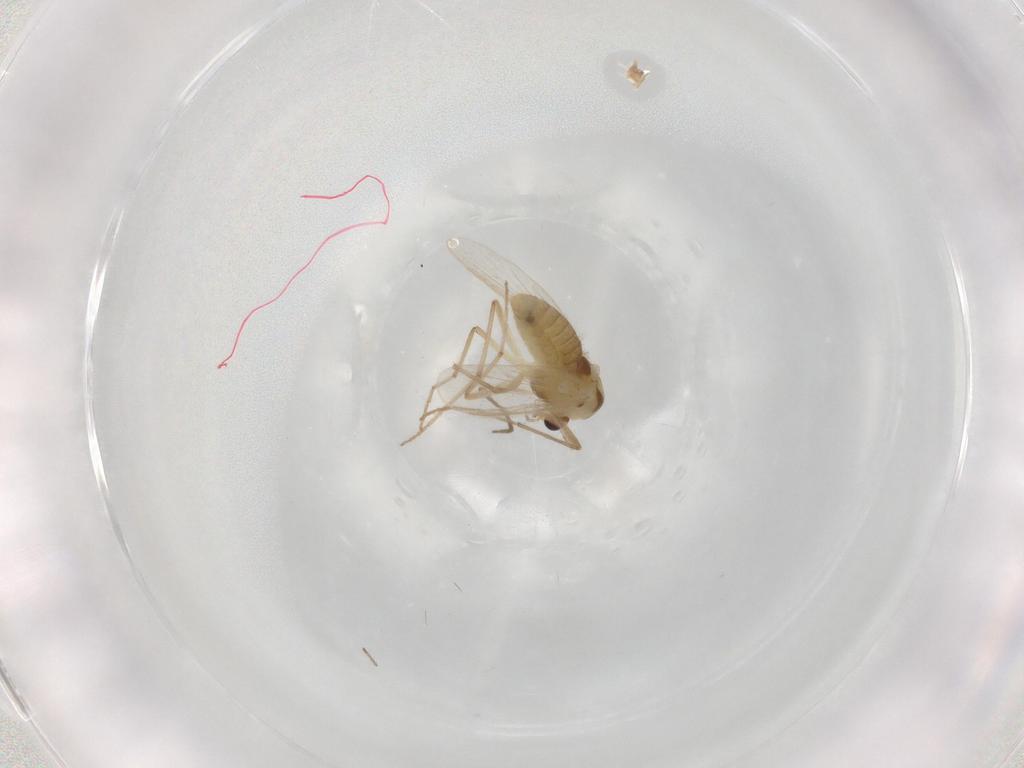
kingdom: Animalia
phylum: Arthropoda
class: Insecta
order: Diptera
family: Chironomidae
